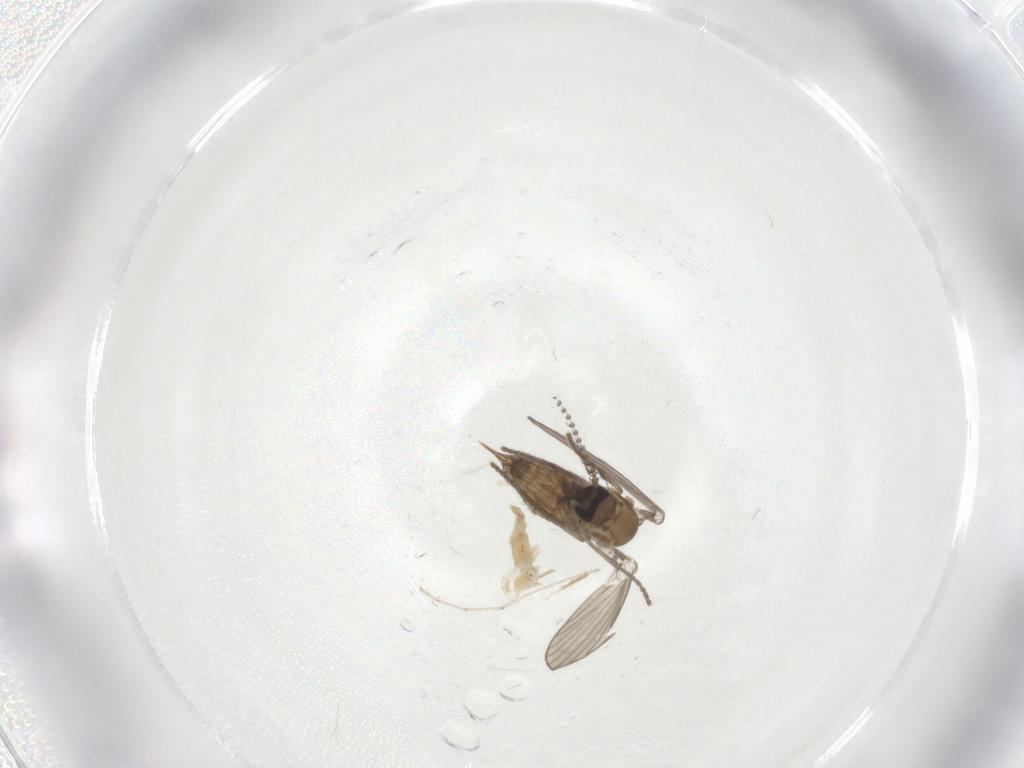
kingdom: Animalia
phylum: Arthropoda
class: Insecta
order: Diptera
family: Psychodidae
